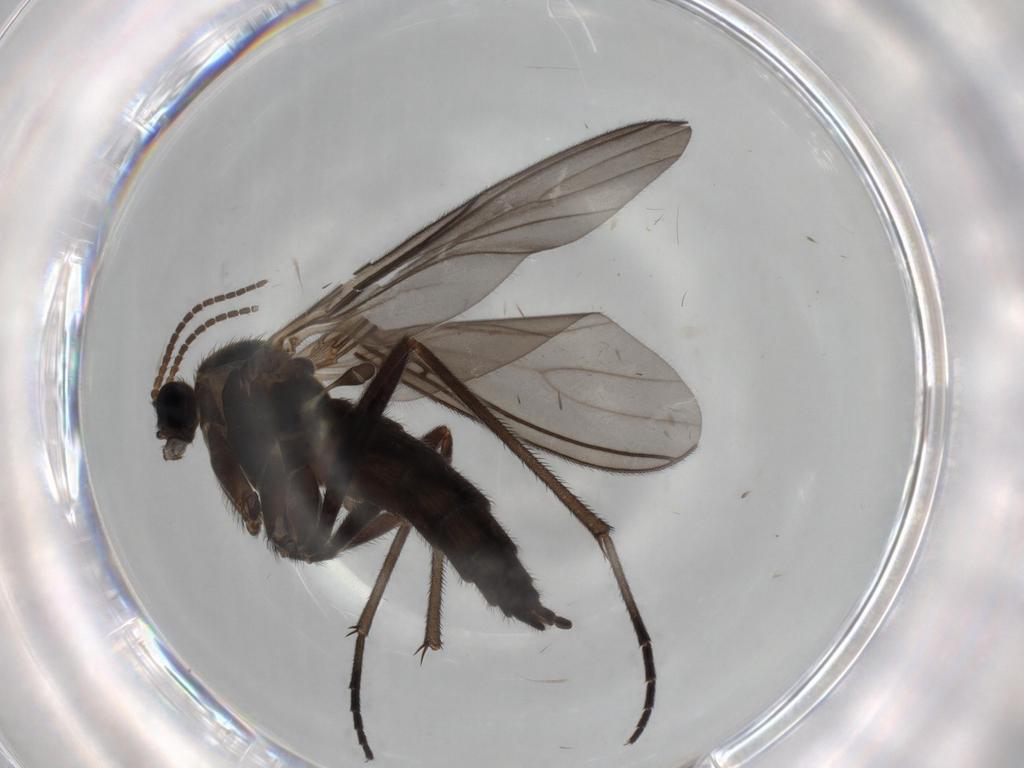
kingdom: Animalia
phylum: Arthropoda
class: Insecta
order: Diptera
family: Sciaridae
